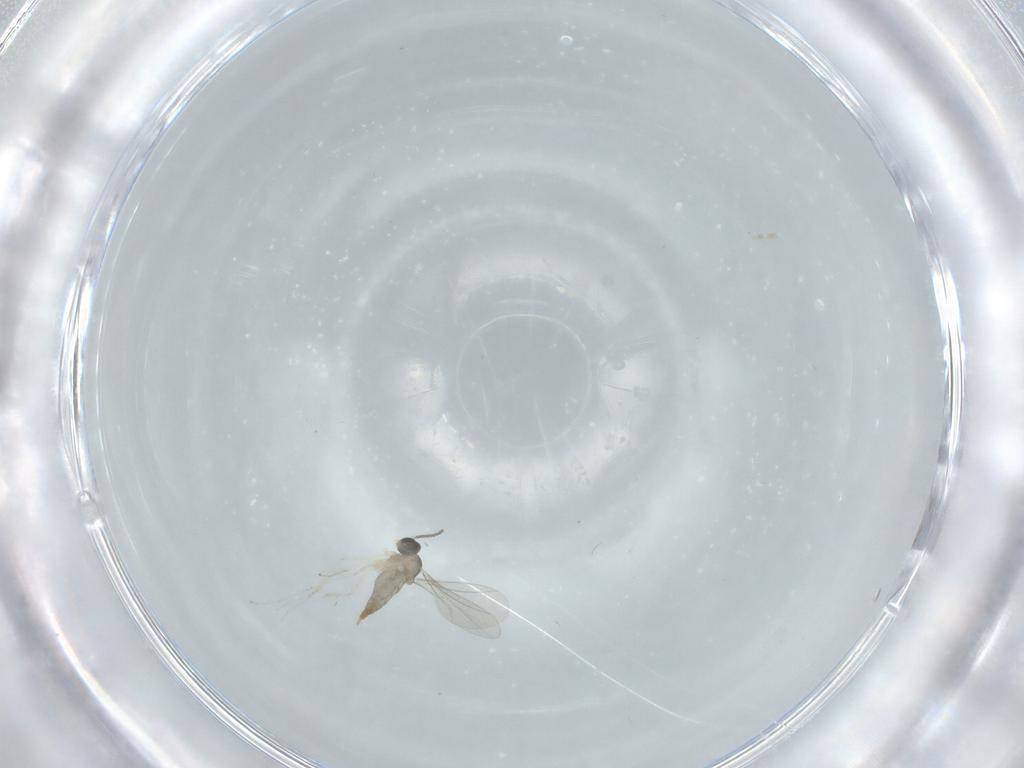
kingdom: Animalia
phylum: Arthropoda
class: Insecta
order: Diptera
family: Cecidomyiidae
